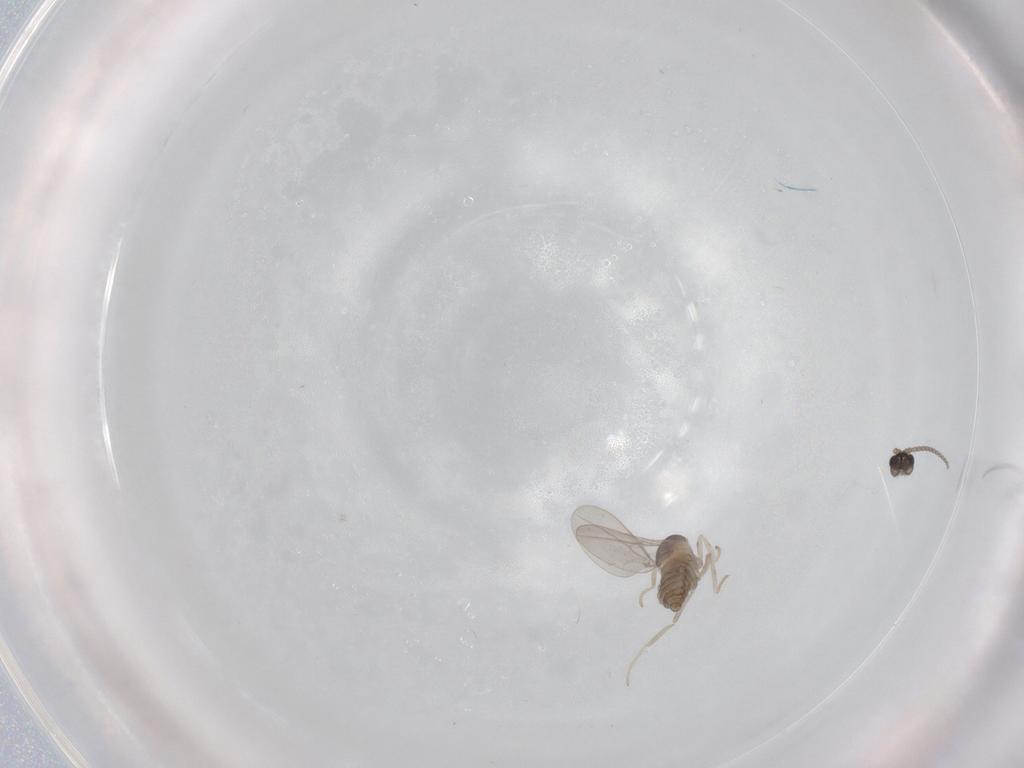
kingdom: Animalia
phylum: Arthropoda
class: Insecta
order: Diptera
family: Cecidomyiidae
